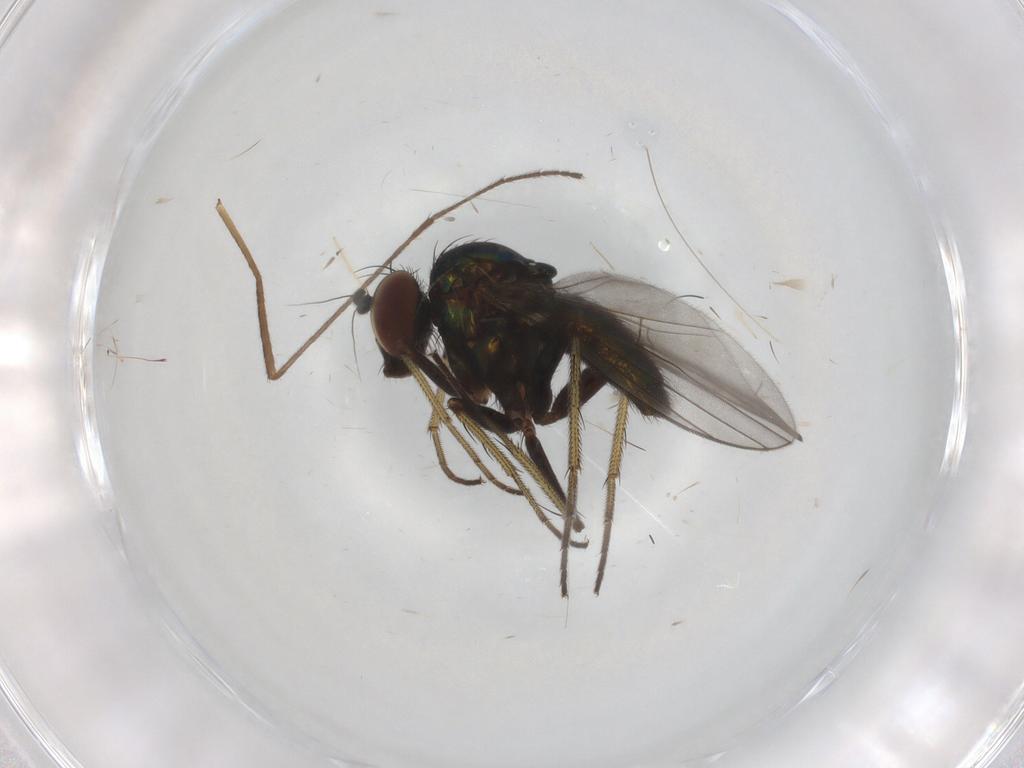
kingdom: Animalia
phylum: Arthropoda
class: Insecta
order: Diptera
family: Dolichopodidae
